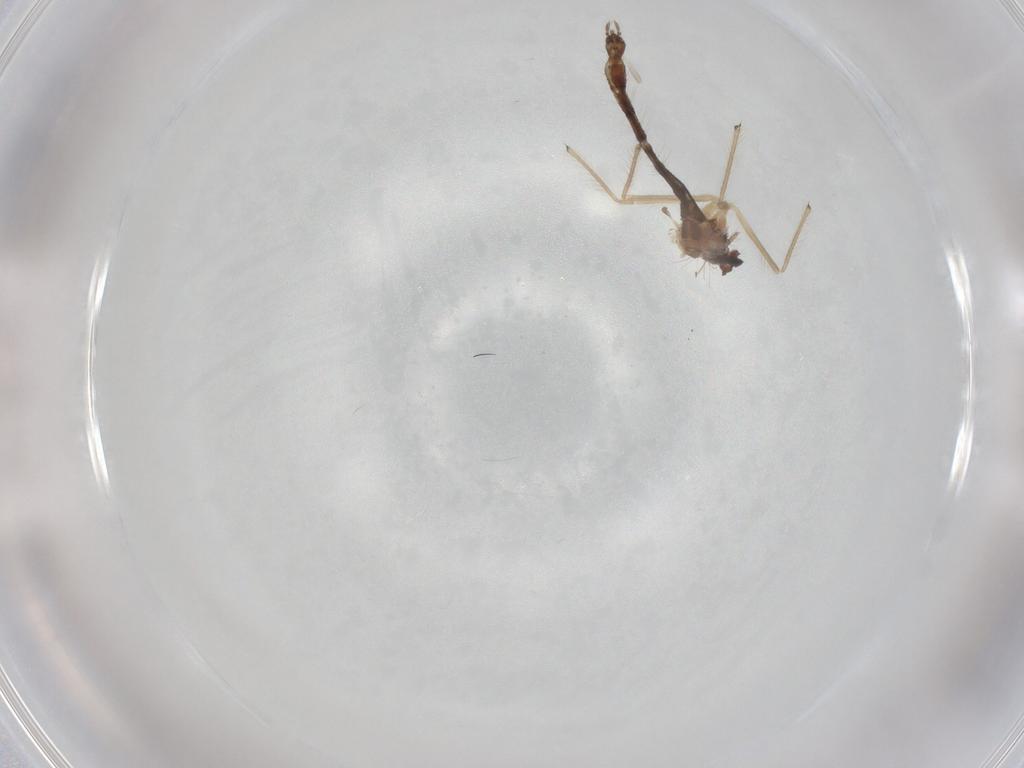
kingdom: Animalia
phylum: Arthropoda
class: Insecta
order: Diptera
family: Chironomidae
